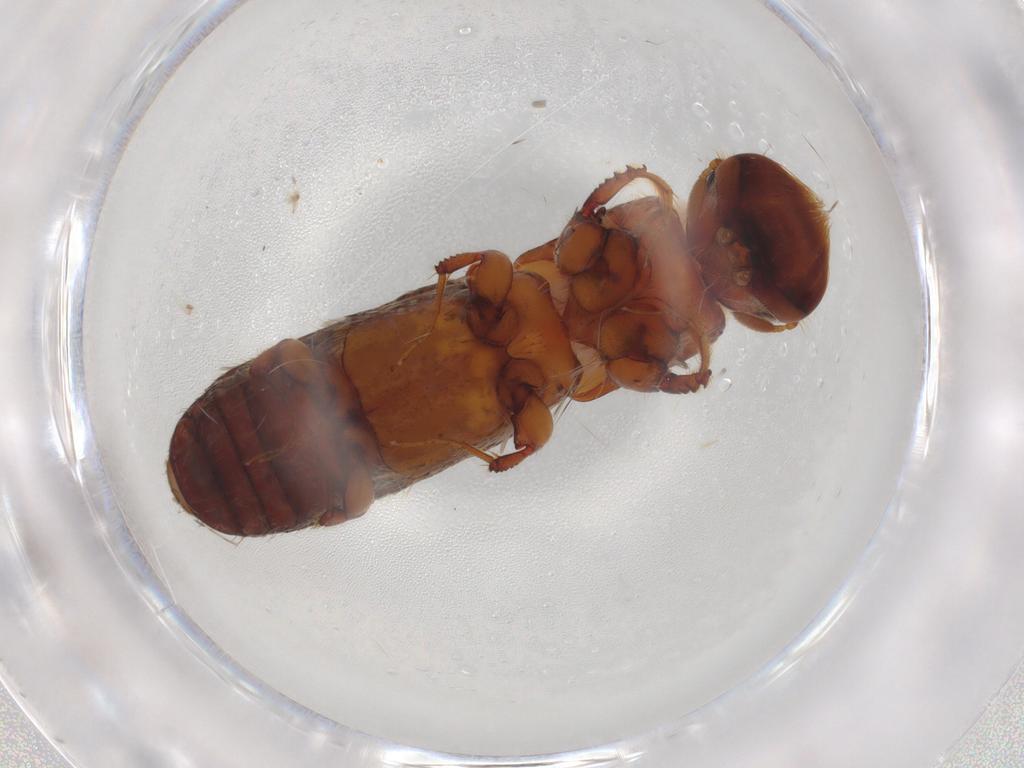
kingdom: Animalia
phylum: Arthropoda
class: Insecta
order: Coleoptera
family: Curculionidae
